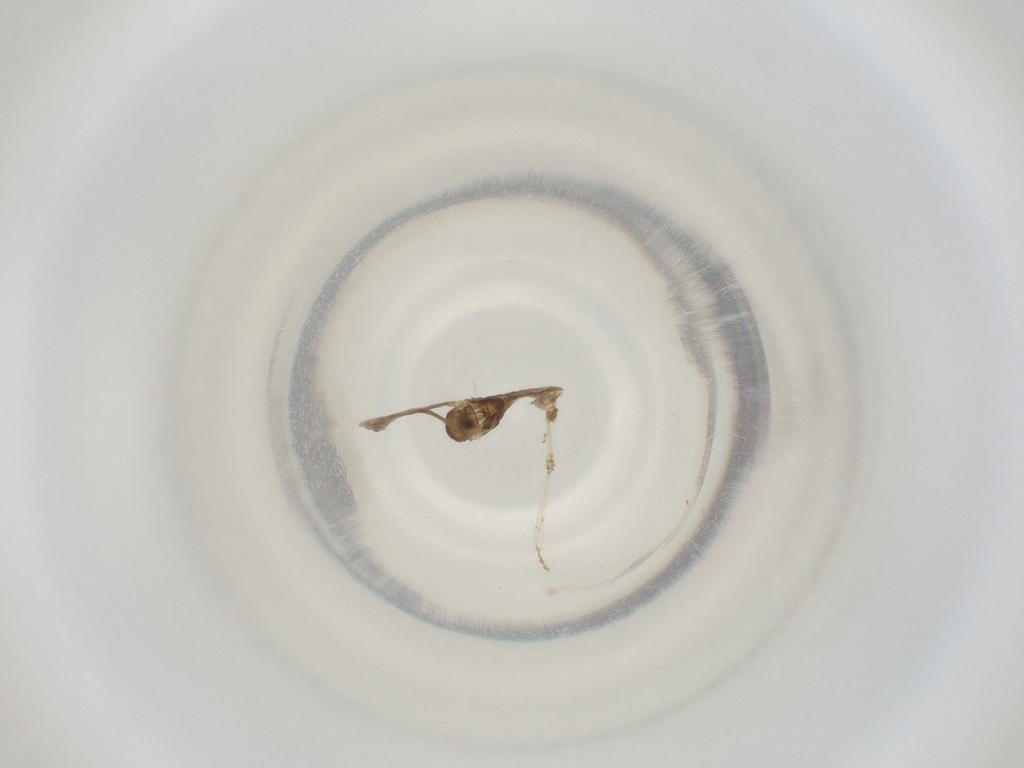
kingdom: Animalia
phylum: Arthropoda
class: Insecta
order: Diptera
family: Cecidomyiidae
